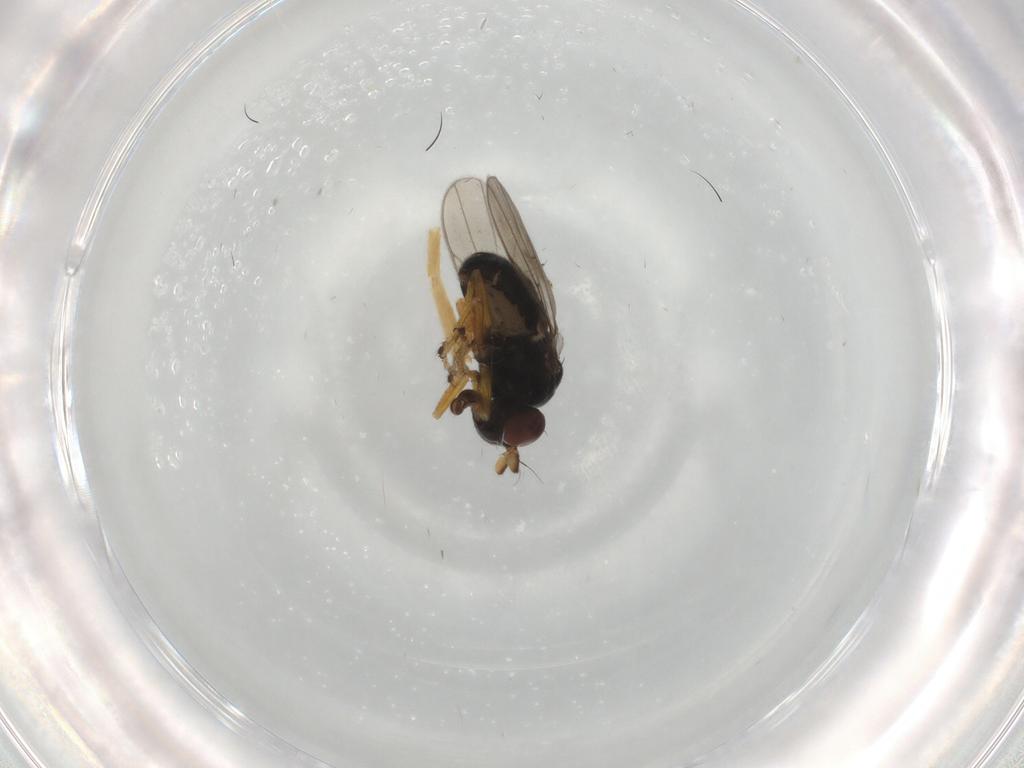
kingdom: Animalia
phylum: Arthropoda
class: Insecta
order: Diptera
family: Ephydridae
